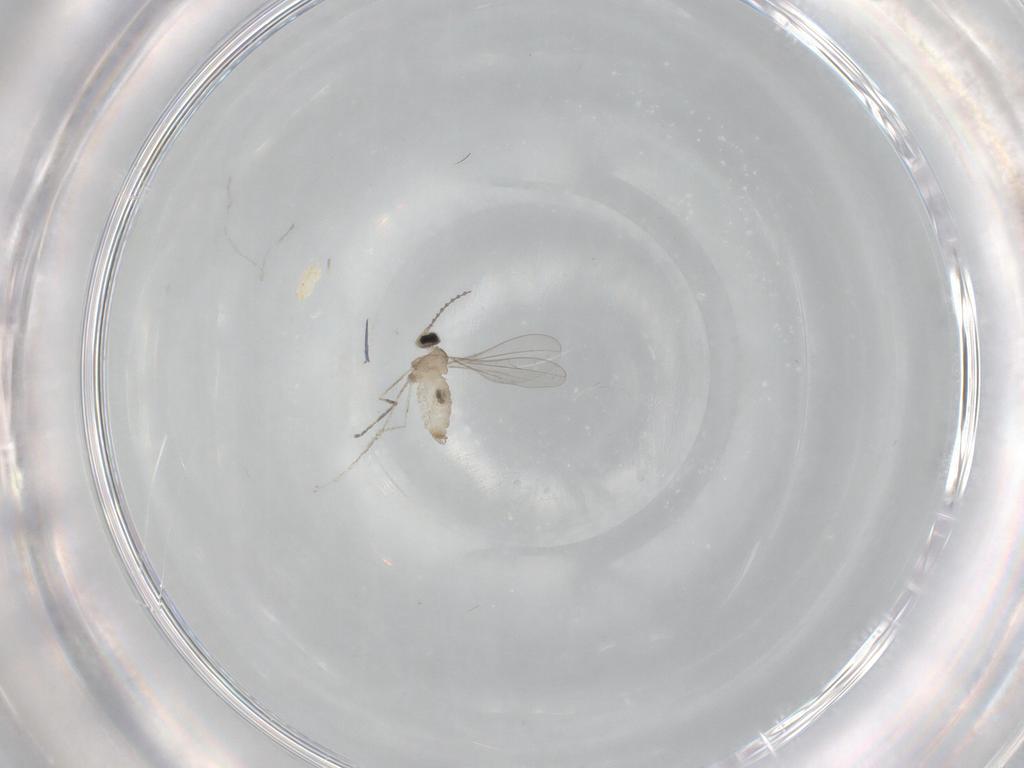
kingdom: Animalia
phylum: Arthropoda
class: Insecta
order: Diptera
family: Cecidomyiidae
